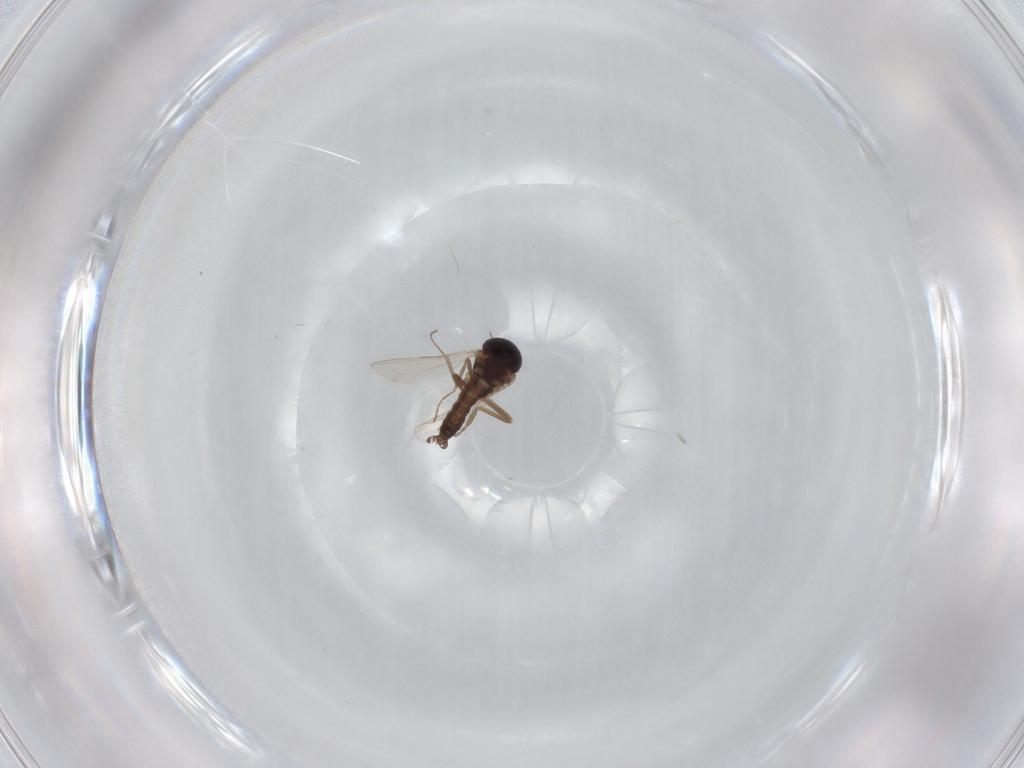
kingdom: Animalia
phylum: Arthropoda
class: Insecta
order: Diptera
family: Ceratopogonidae
